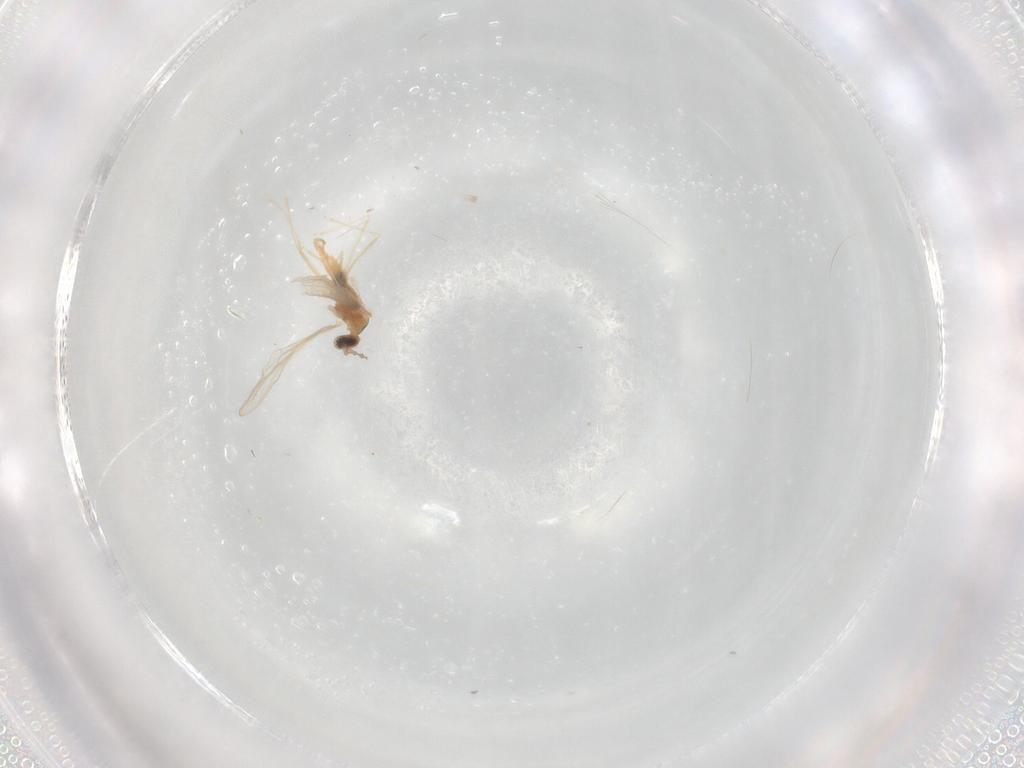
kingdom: Animalia
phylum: Arthropoda
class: Insecta
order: Diptera
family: Cecidomyiidae
